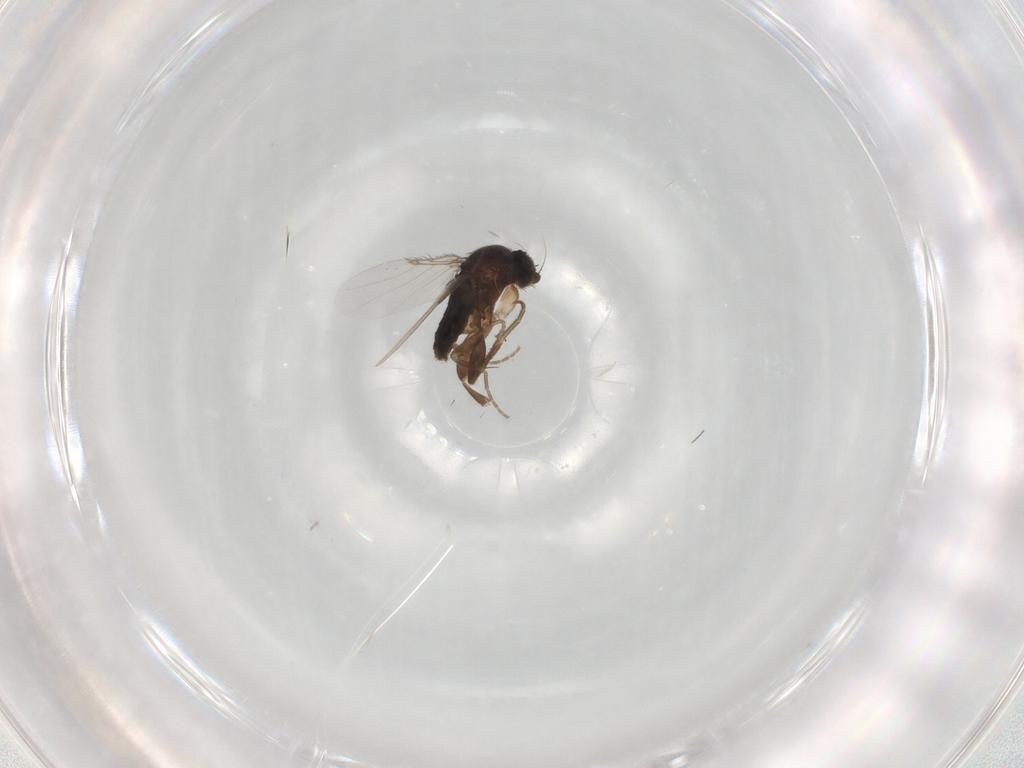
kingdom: Animalia
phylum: Arthropoda
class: Insecta
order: Diptera
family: Phoridae
